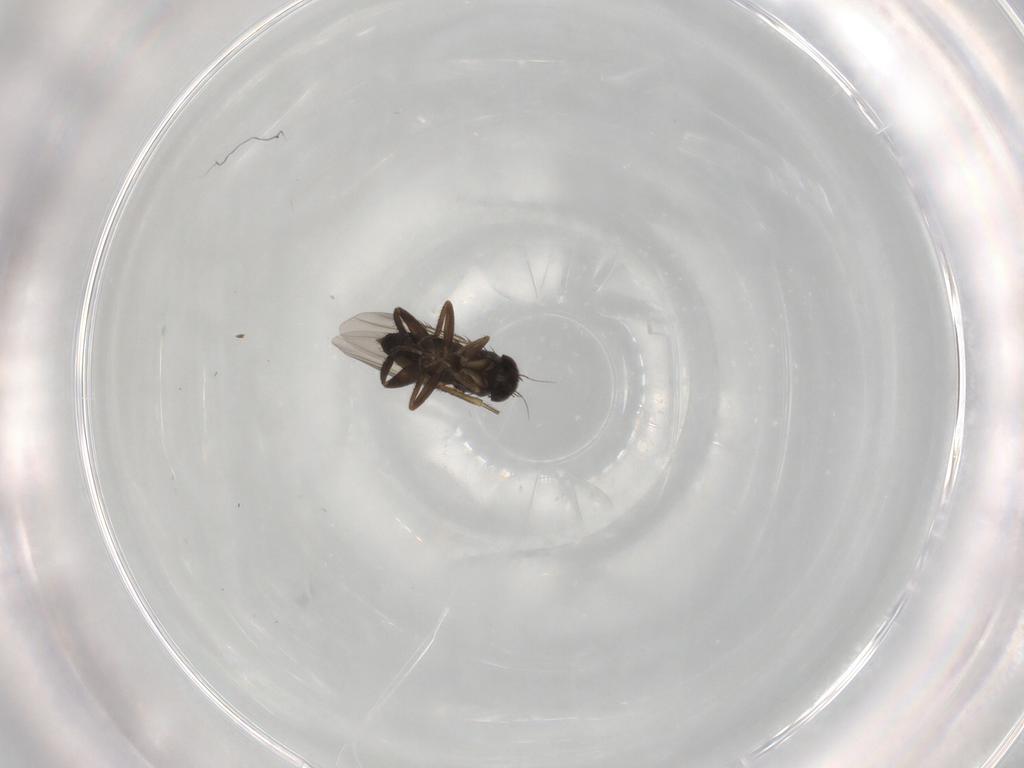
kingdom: Animalia
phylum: Arthropoda
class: Insecta
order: Diptera
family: Phoridae
